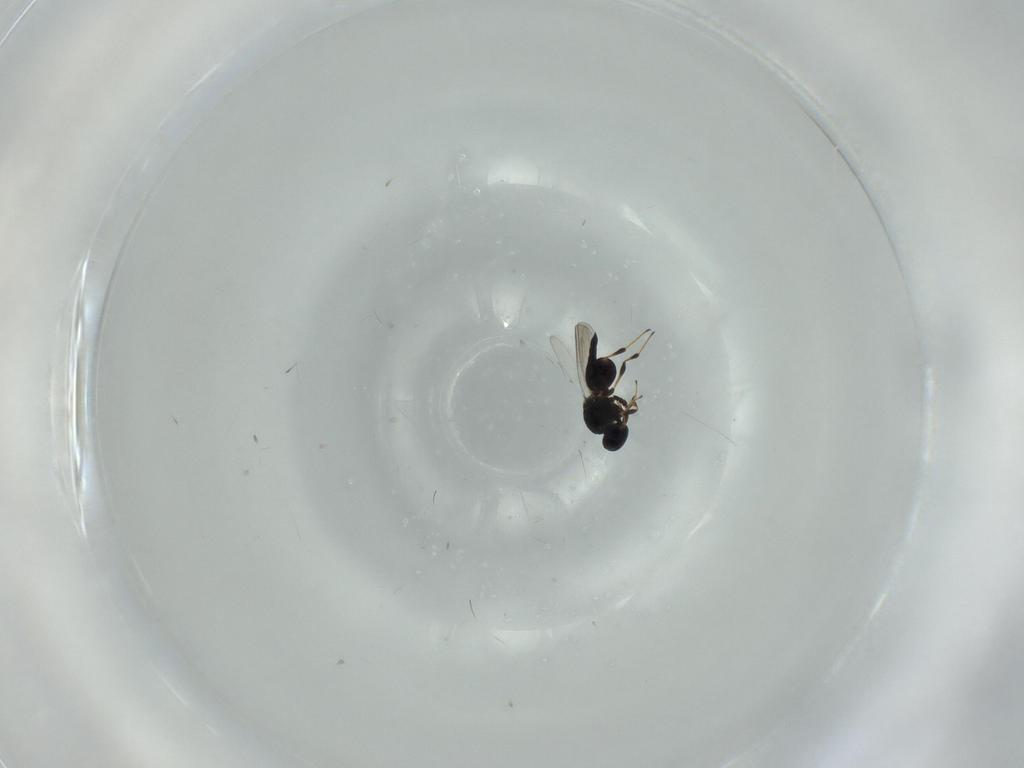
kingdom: Animalia
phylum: Arthropoda
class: Insecta
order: Hymenoptera
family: Platygastridae
